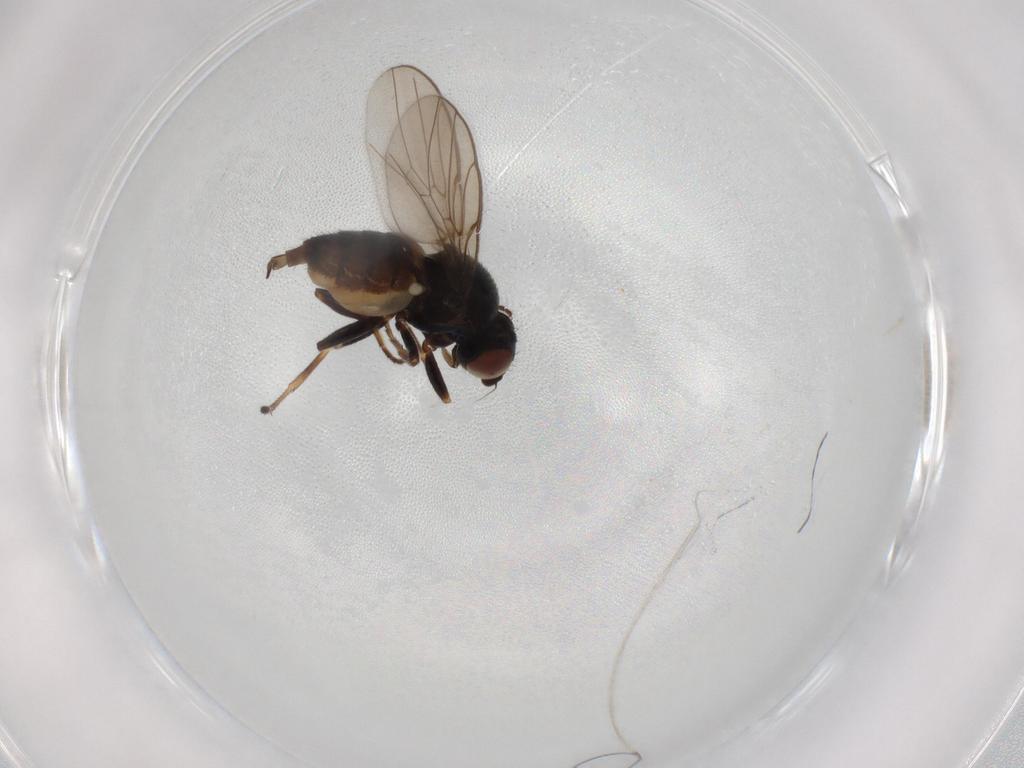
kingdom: Animalia
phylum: Arthropoda
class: Insecta
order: Diptera
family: Chloropidae
